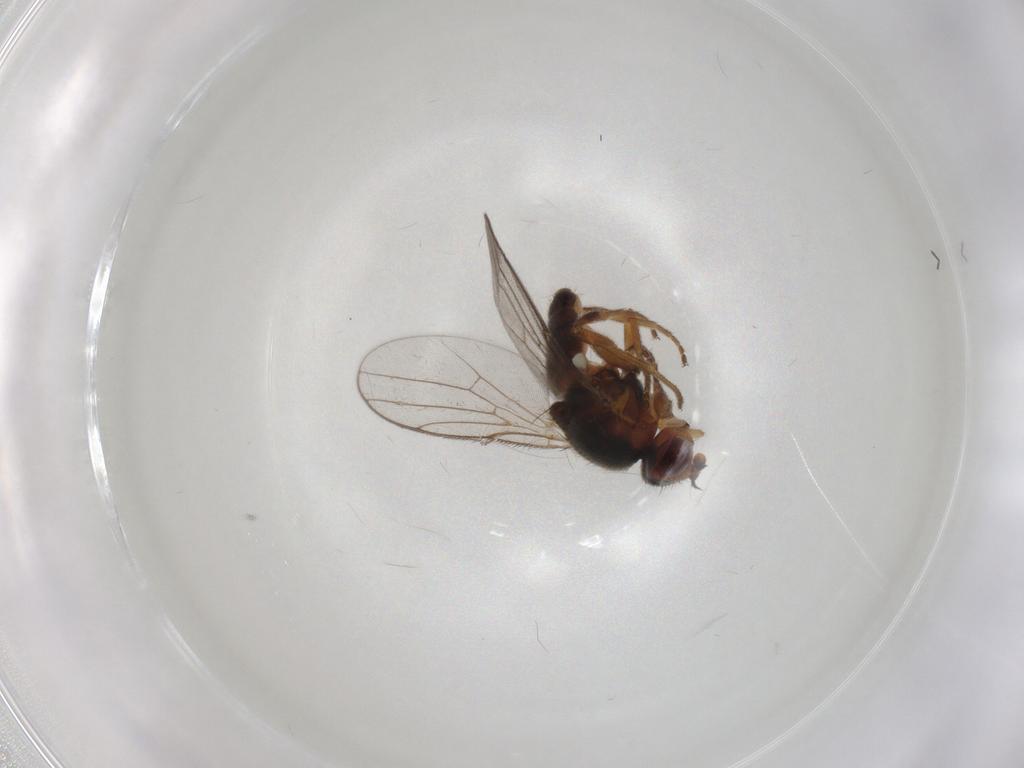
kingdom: Animalia
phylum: Arthropoda
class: Insecta
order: Diptera
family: Chloropidae
